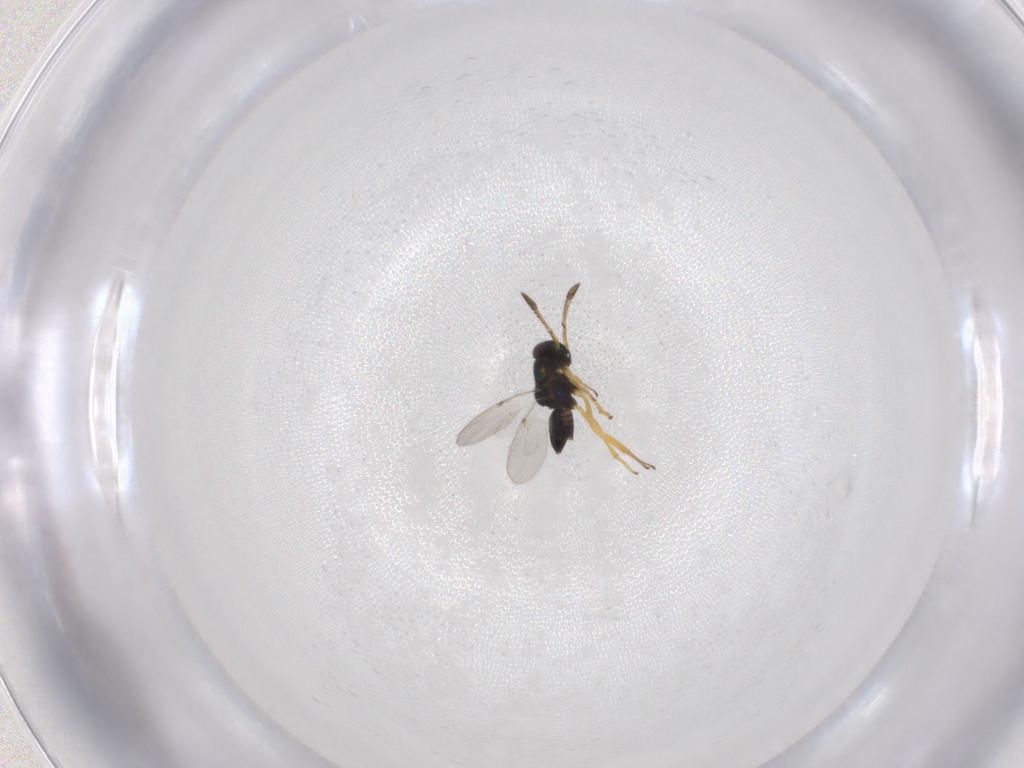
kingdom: Animalia
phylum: Arthropoda
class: Insecta
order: Hymenoptera
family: Encyrtidae
